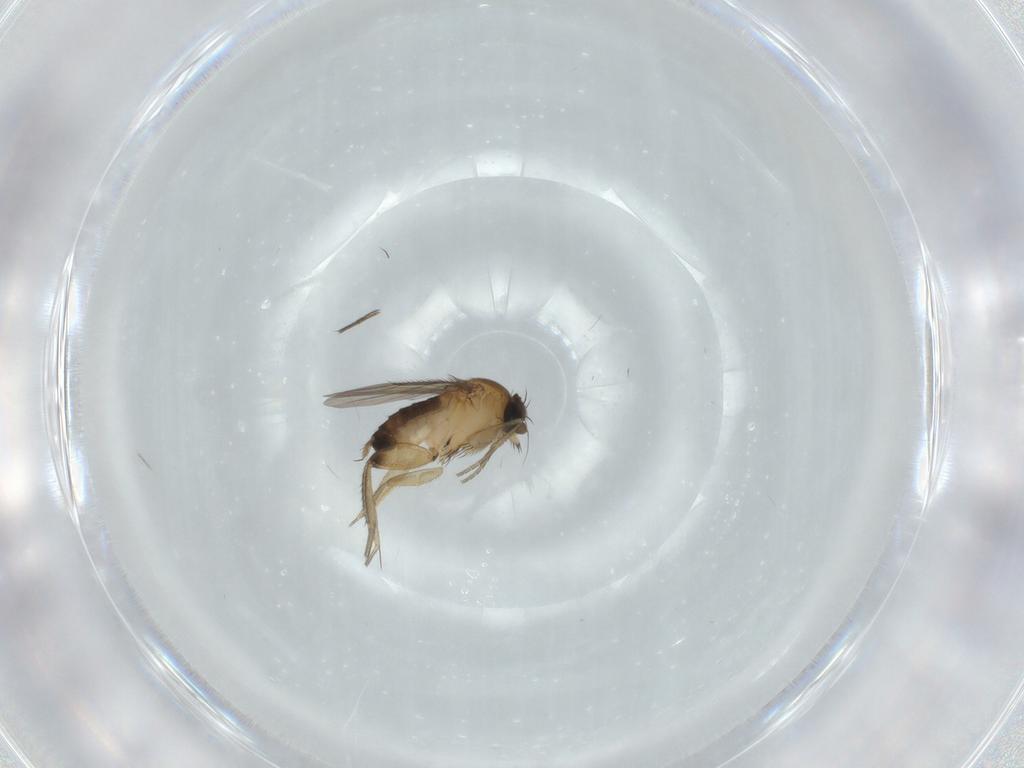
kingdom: Animalia
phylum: Arthropoda
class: Insecta
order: Diptera
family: Phoridae
